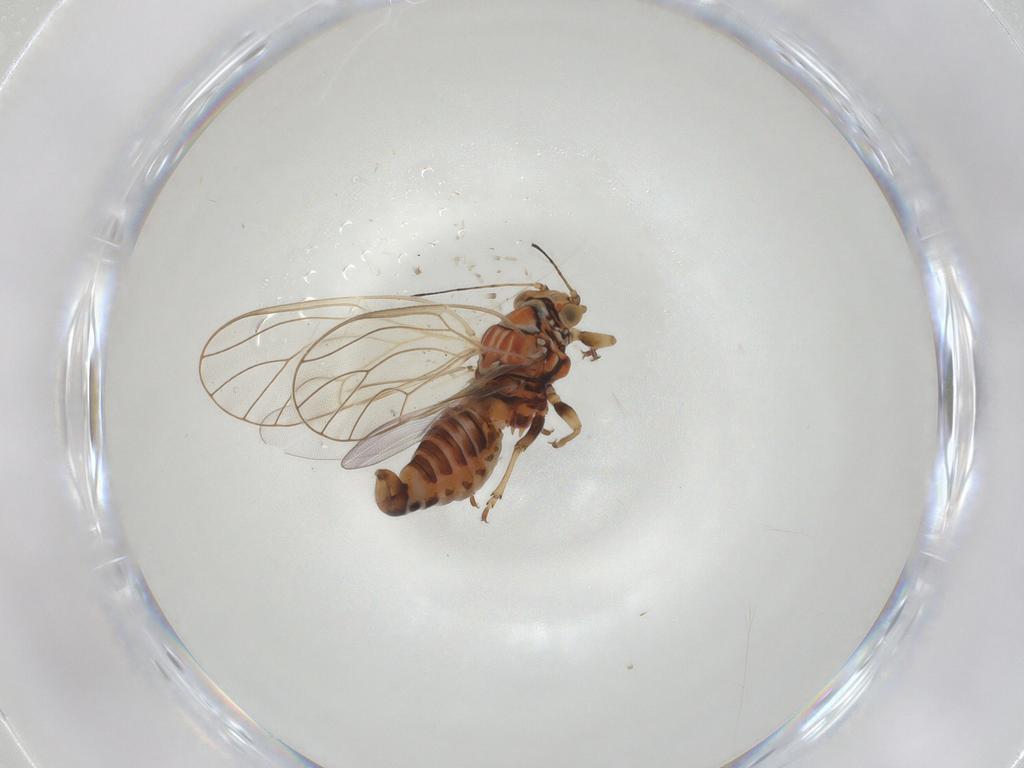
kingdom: Animalia
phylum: Arthropoda
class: Insecta
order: Hemiptera
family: Psyllidae
